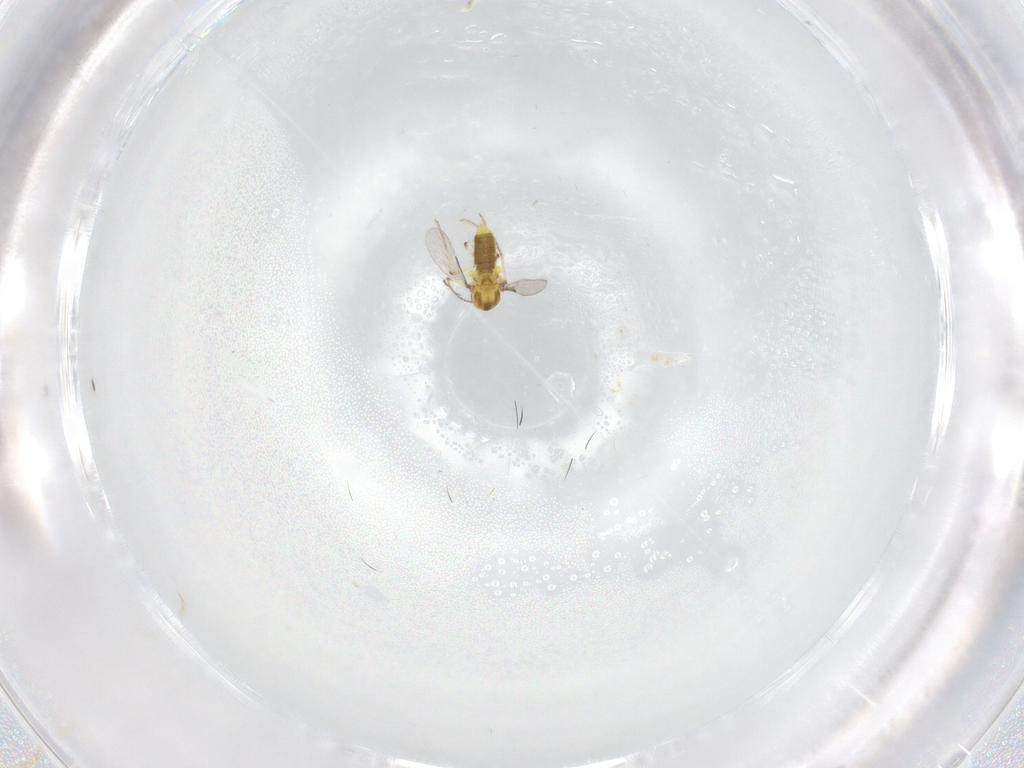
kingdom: Animalia
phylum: Arthropoda
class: Insecta
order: Diptera
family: Ceratopogonidae
